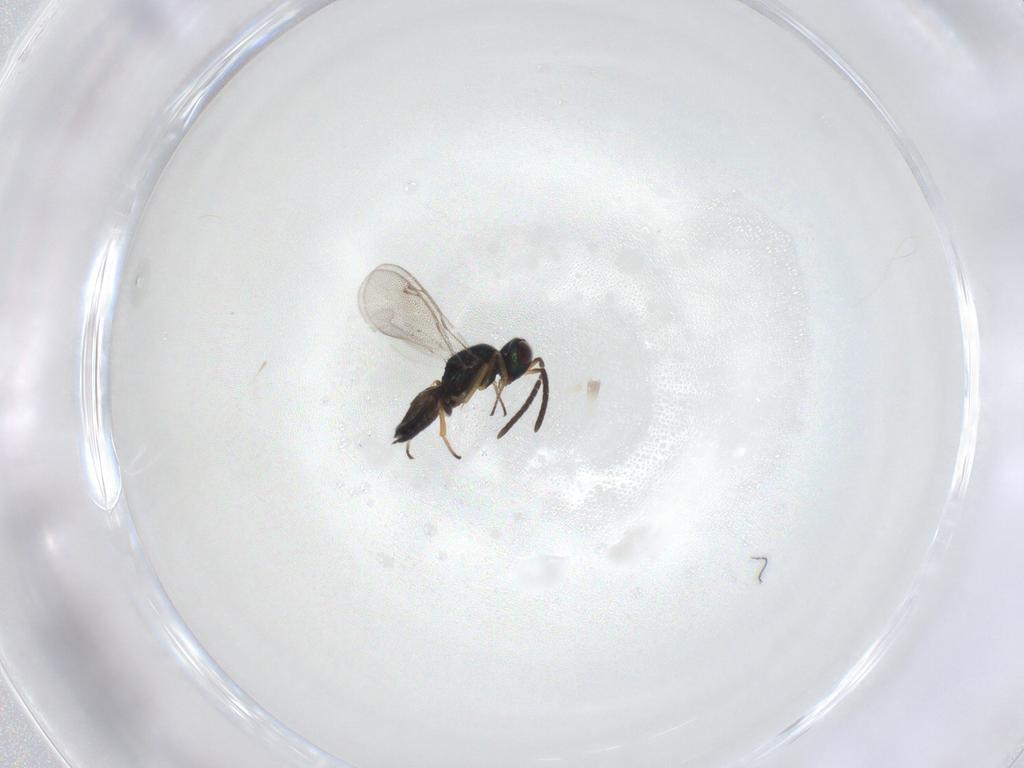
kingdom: Animalia
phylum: Arthropoda
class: Insecta
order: Hymenoptera
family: Eupelmidae
